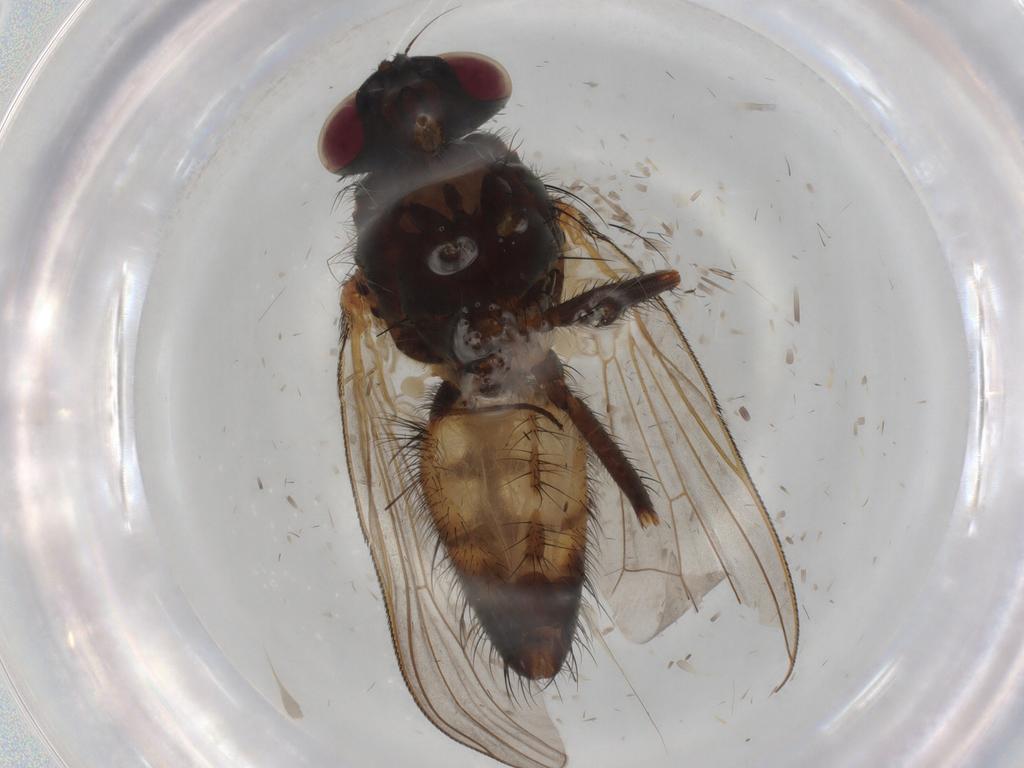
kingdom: Animalia
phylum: Arthropoda
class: Insecta
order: Diptera
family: Fannia
